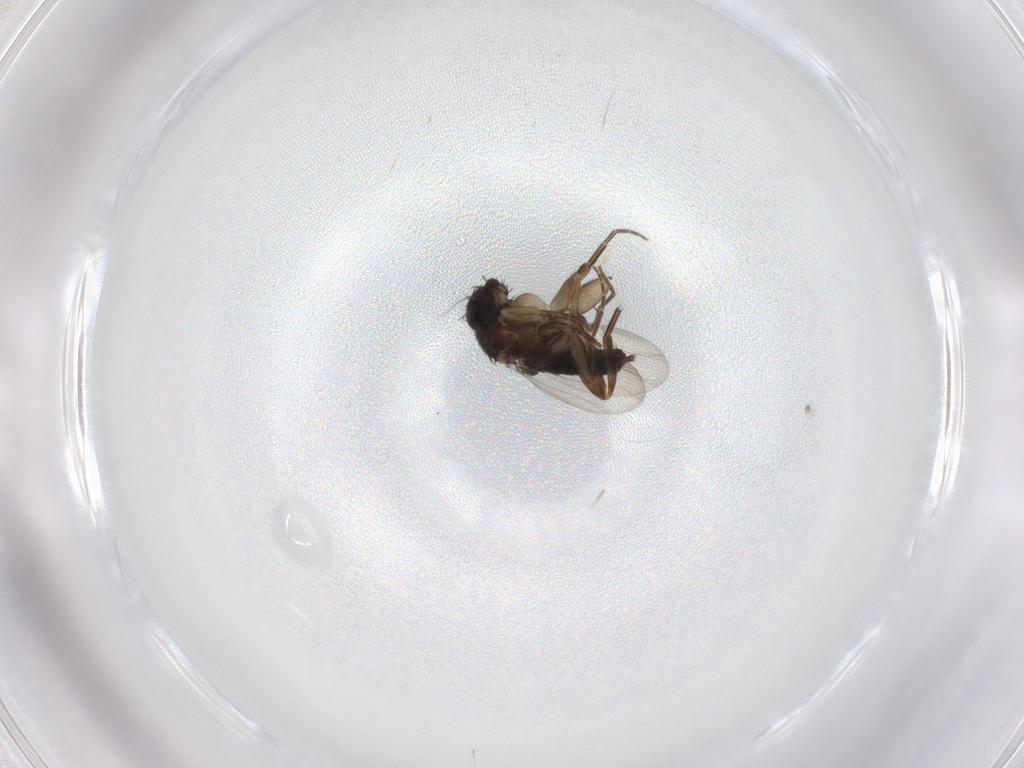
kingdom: Animalia
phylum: Arthropoda
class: Insecta
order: Diptera
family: Phoridae
